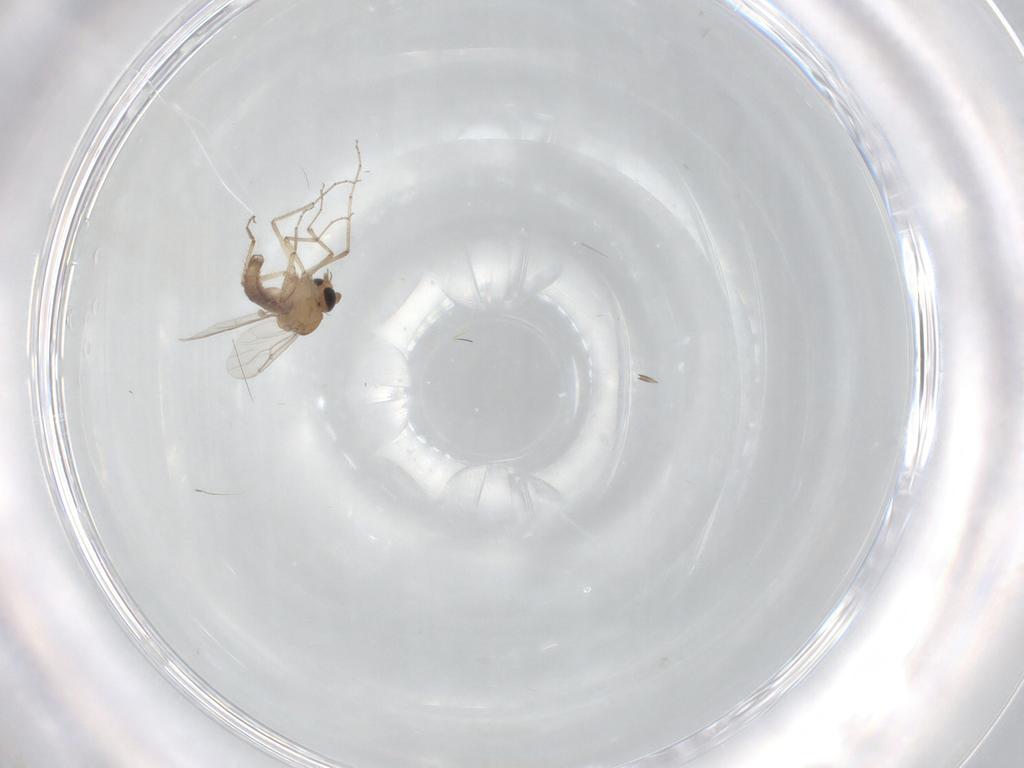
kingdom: Animalia
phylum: Arthropoda
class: Insecta
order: Diptera
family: Ceratopogonidae
